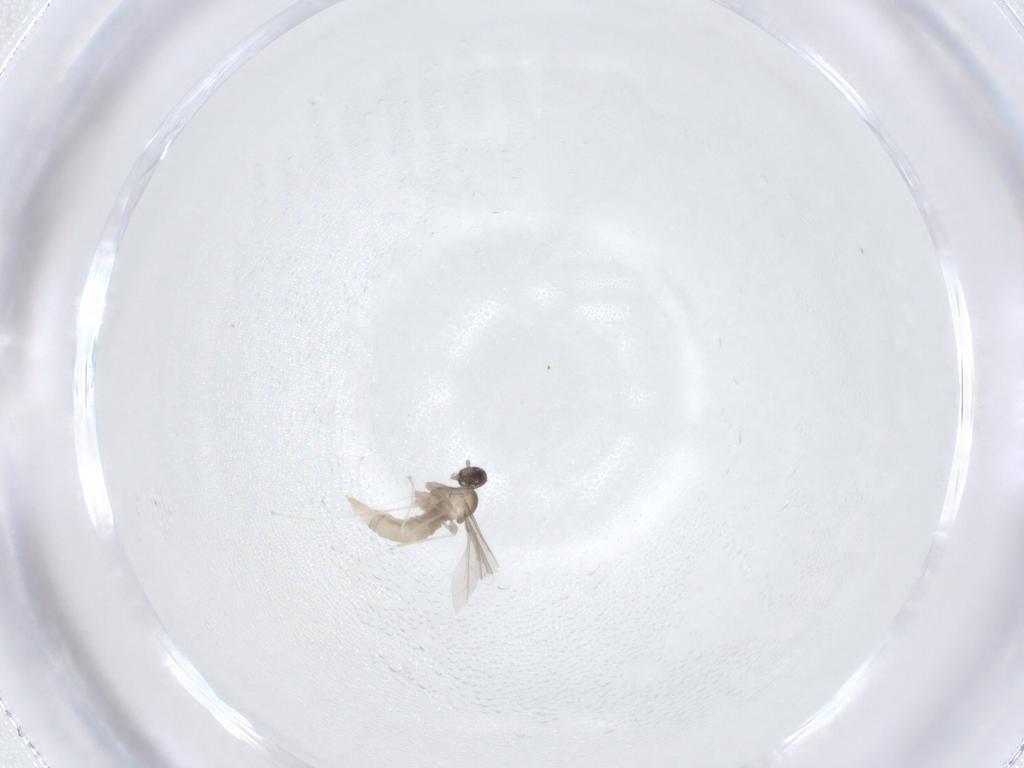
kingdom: Animalia
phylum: Arthropoda
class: Insecta
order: Diptera
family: Cecidomyiidae
